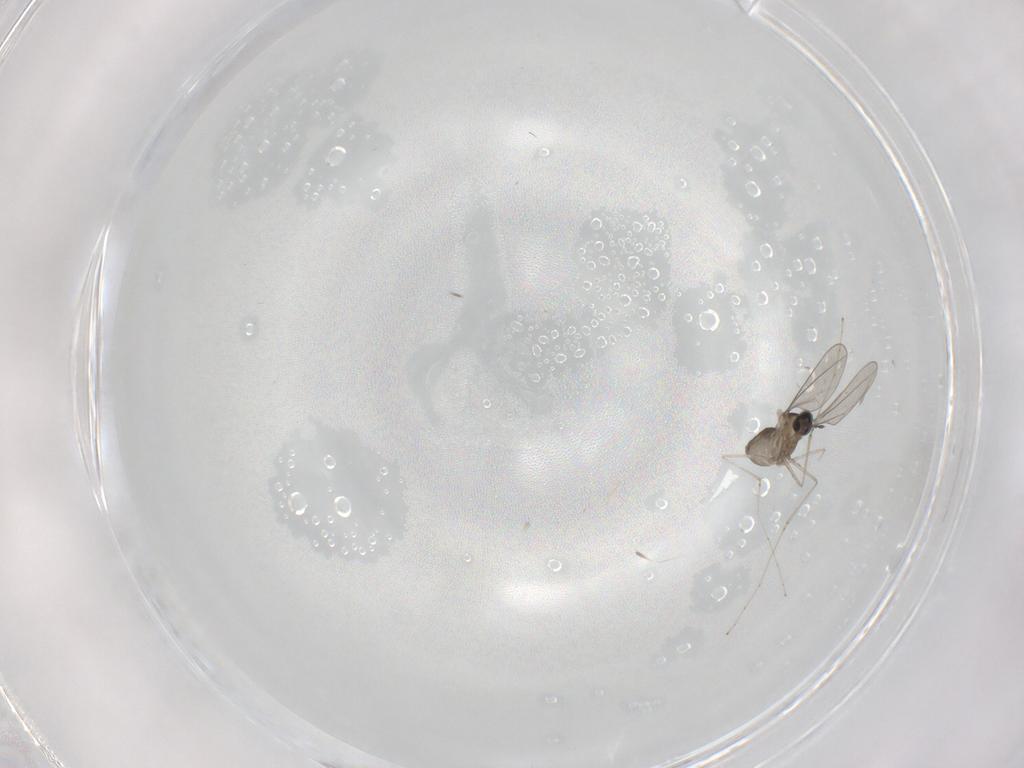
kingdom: Animalia
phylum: Arthropoda
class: Insecta
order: Diptera
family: Cecidomyiidae
